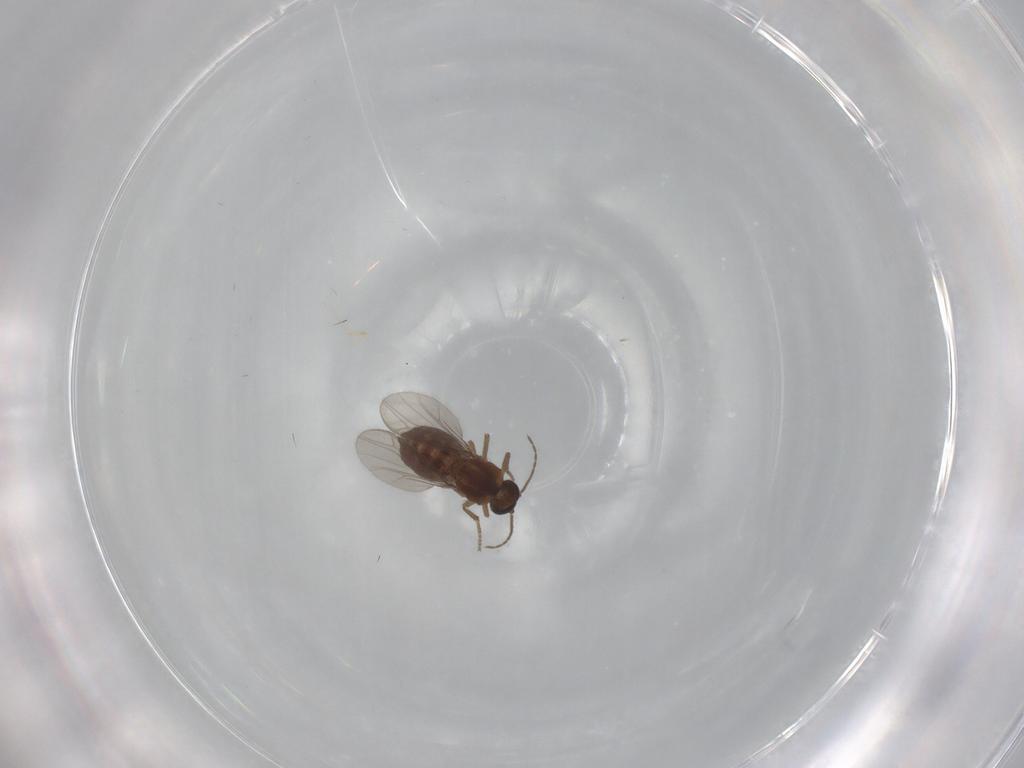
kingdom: Animalia
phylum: Arthropoda
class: Insecta
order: Diptera
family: Ceratopogonidae
